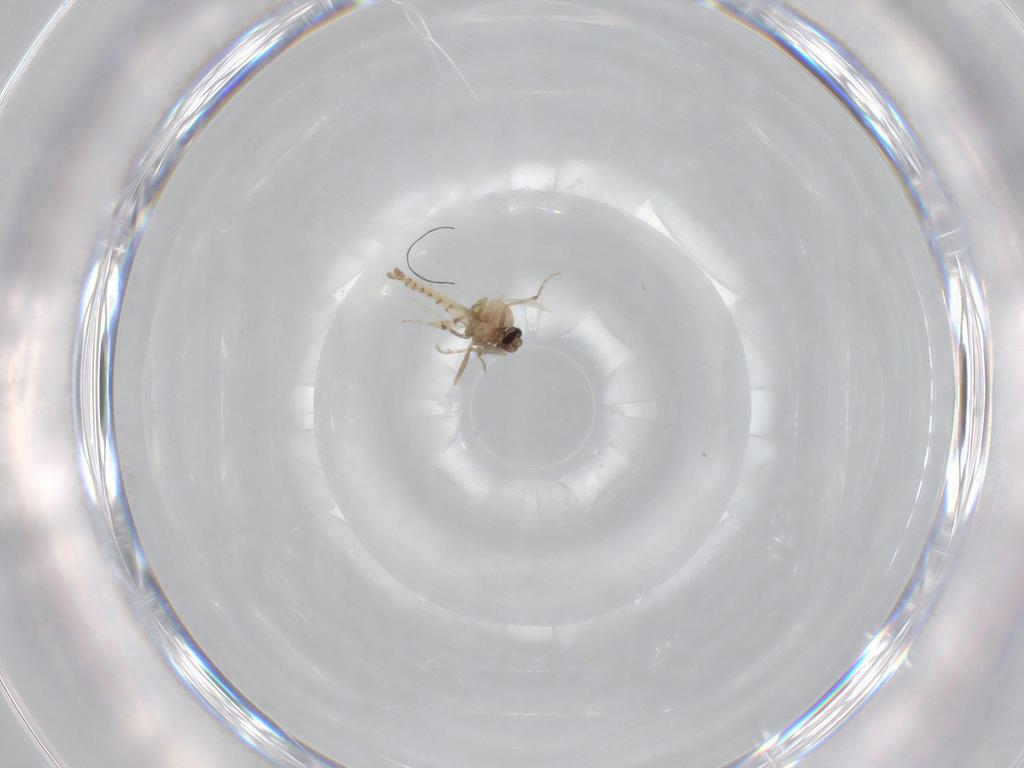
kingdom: Animalia
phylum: Arthropoda
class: Insecta
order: Diptera
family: Ceratopogonidae
